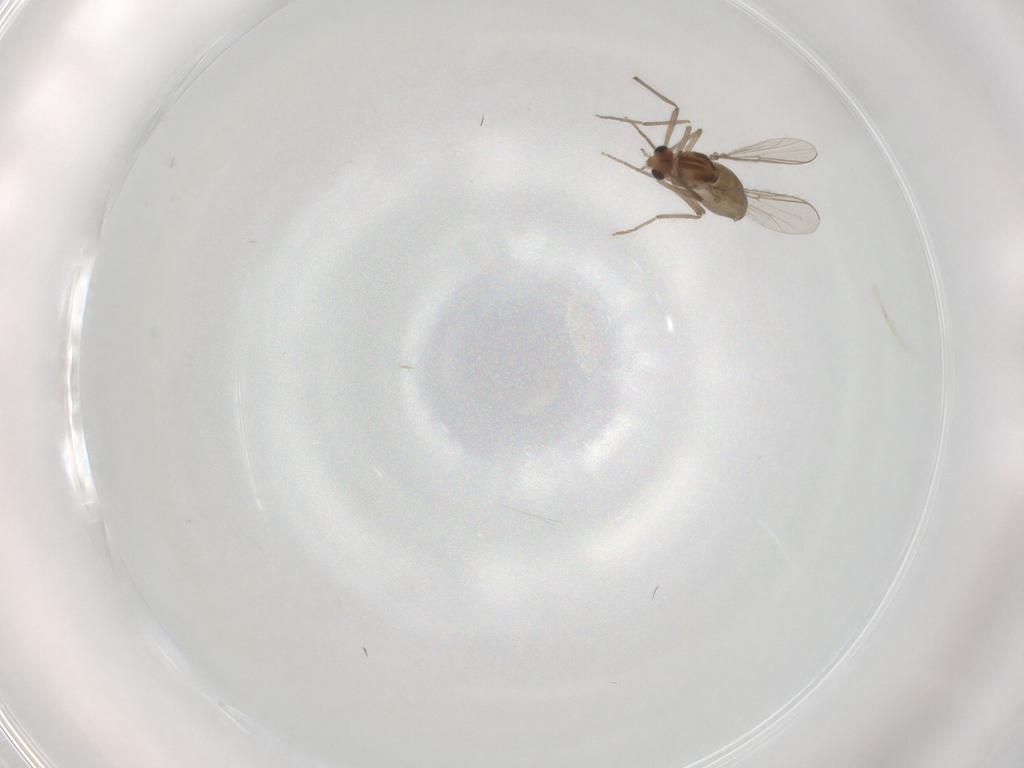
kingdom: Animalia
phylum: Arthropoda
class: Insecta
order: Diptera
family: Chironomidae
